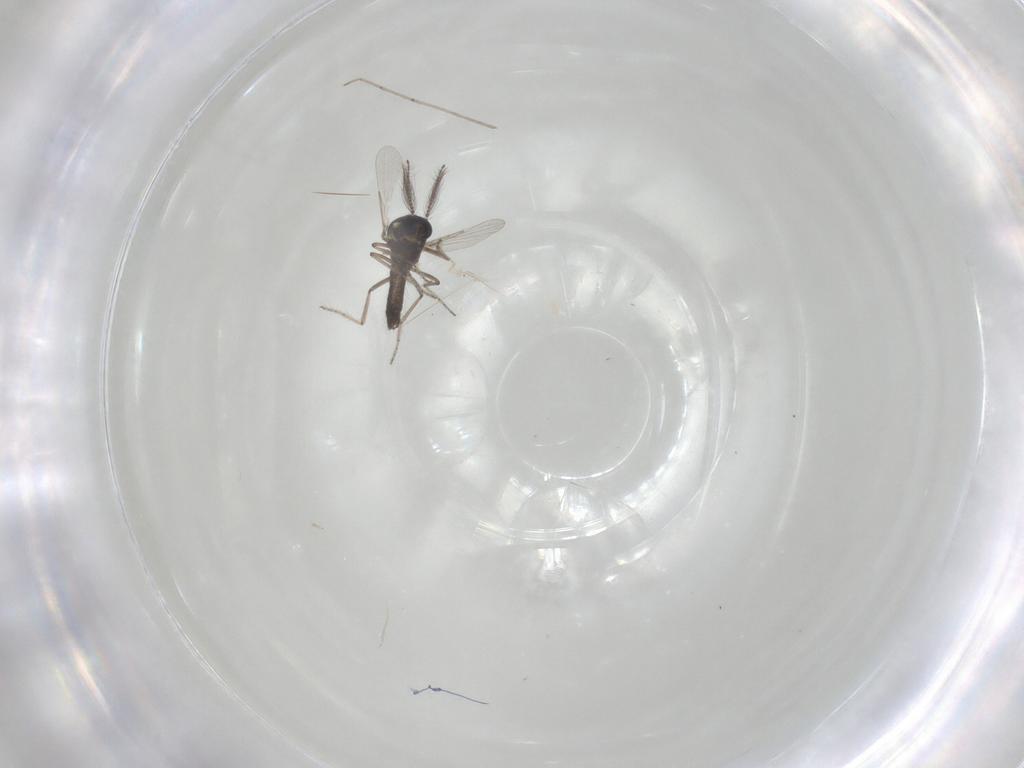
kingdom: Animalia
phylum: Arthropoda
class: Insecta
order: Diptera
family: Ceratopogonidae
